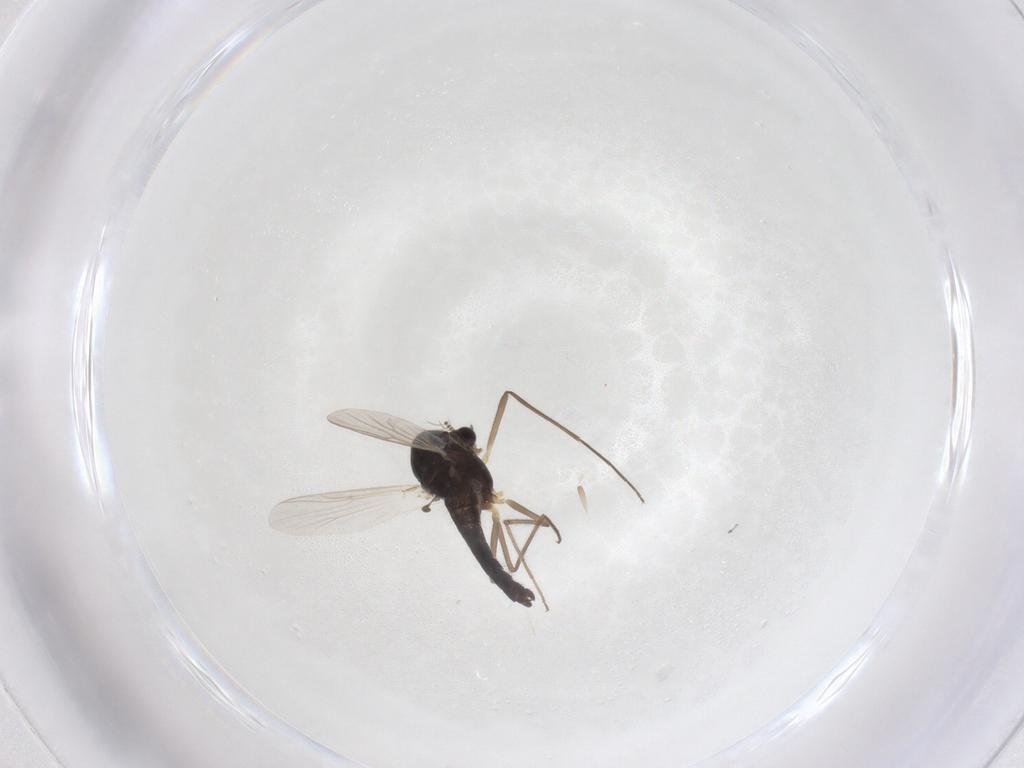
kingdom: Animalia
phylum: Arthropoda
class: Insecta
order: Diptera
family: Chironomidae
